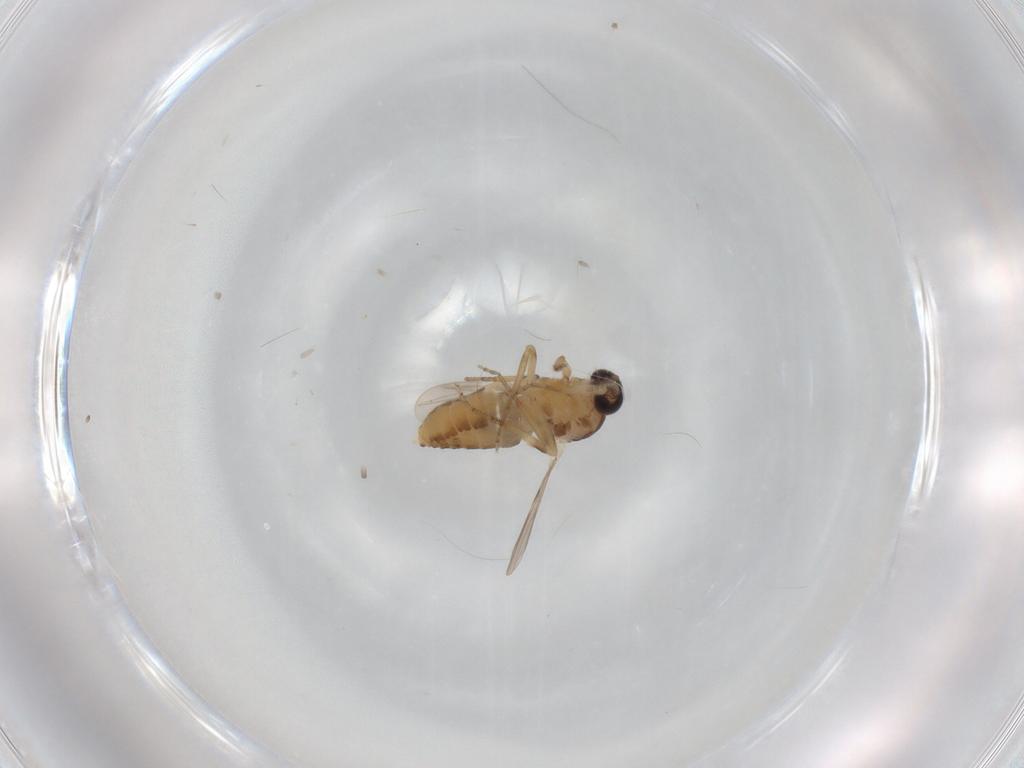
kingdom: Animalia
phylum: Arthropoda
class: Insecta
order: Diptera
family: Ceratopogonidae
